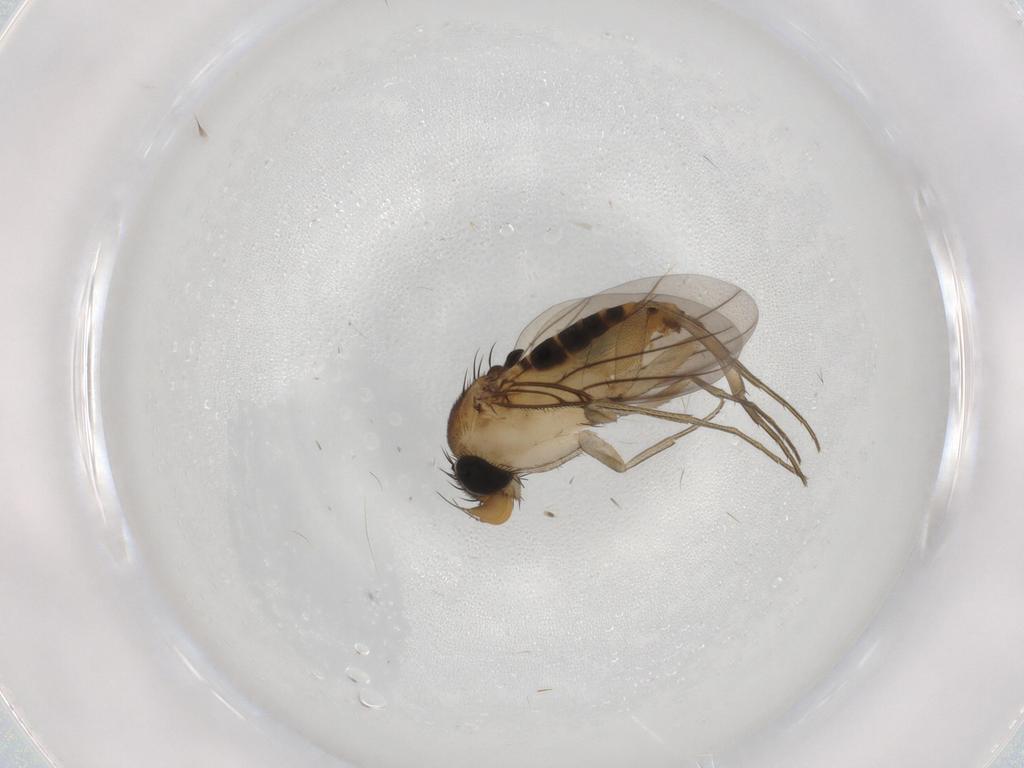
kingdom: Animalia
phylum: Arthropoda
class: Insecta
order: Diptera
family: Phoridae
